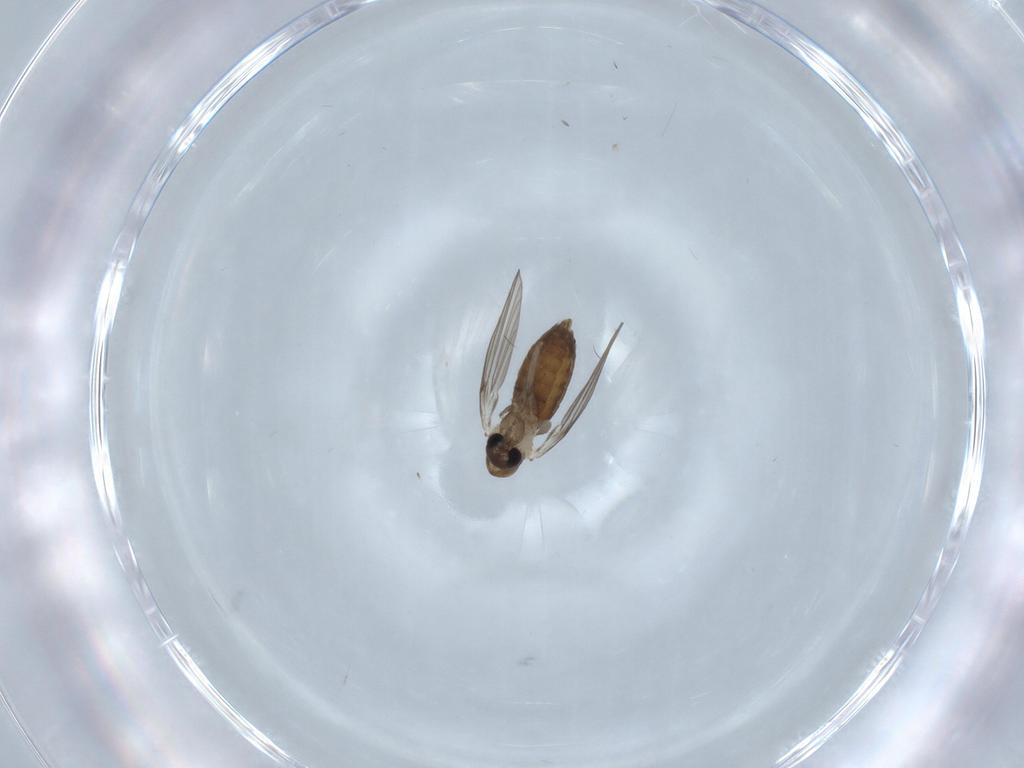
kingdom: Animalia
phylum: Arthropoda
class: Insecta
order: Diptera
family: Psychodidae
